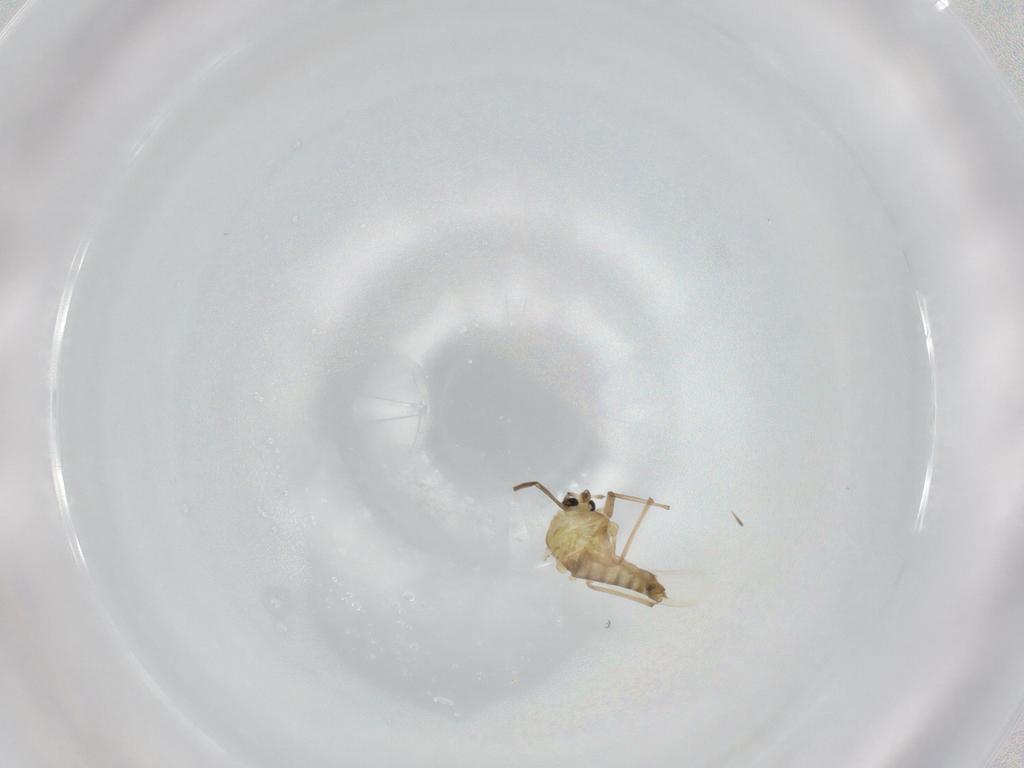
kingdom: Animalia
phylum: Arthropoda
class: Insecta
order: Diptera
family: Chironomidae
